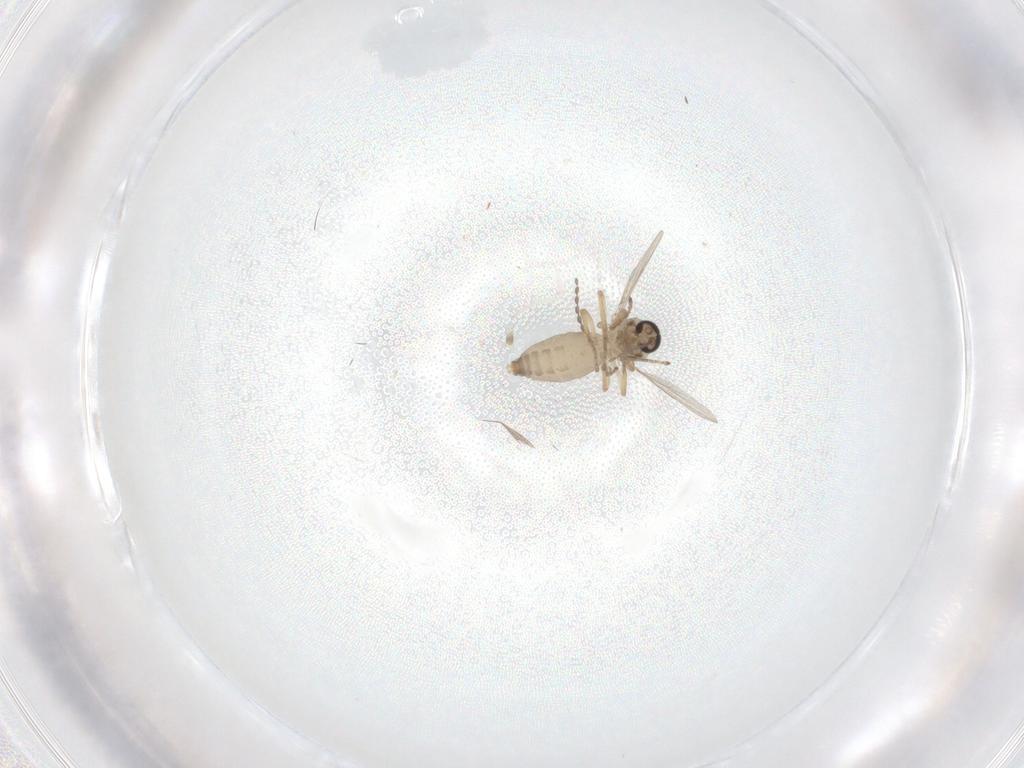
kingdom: Animalia
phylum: Arthropoda
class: Insecta
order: Diptera
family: Ceratopogonidae
